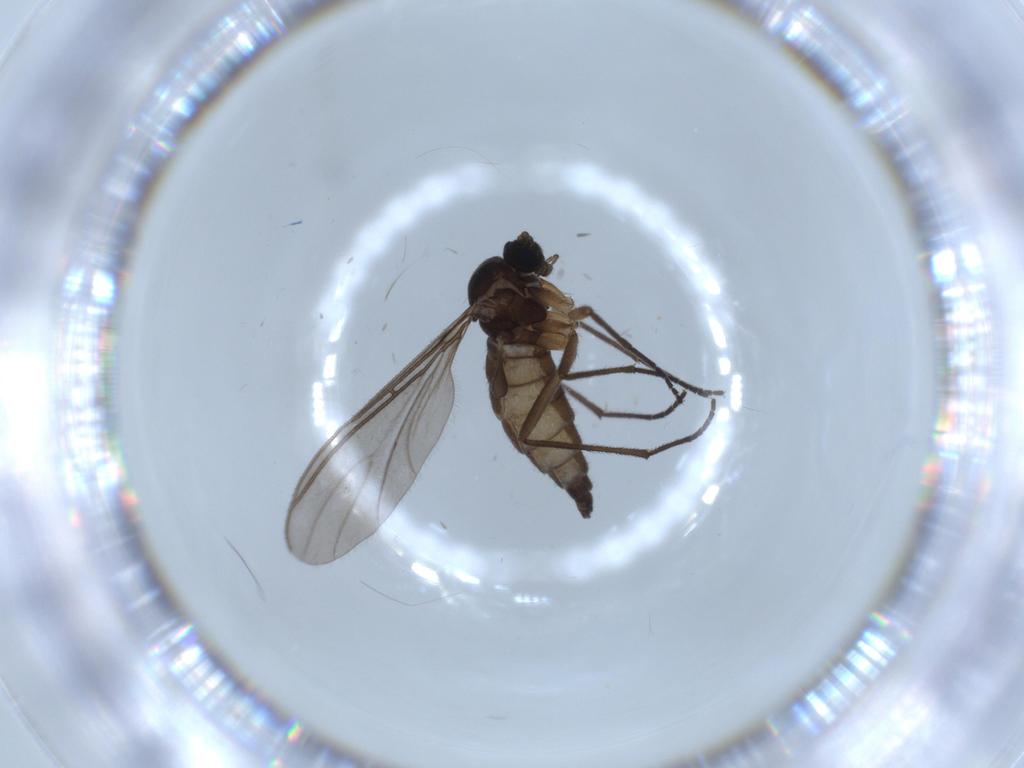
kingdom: Animalia
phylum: Arthropoda
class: Insecta
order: Diptera
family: Sciaridae
